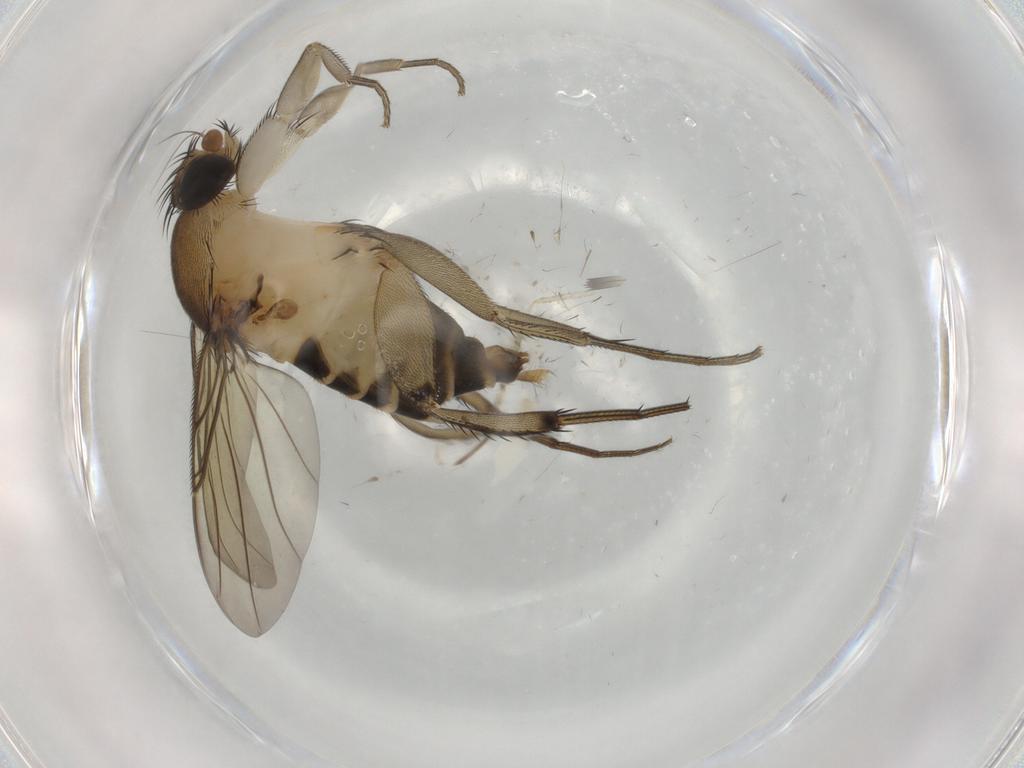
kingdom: Animalia
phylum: Arthropoda
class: Insecta
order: Diptera
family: Phoridae
